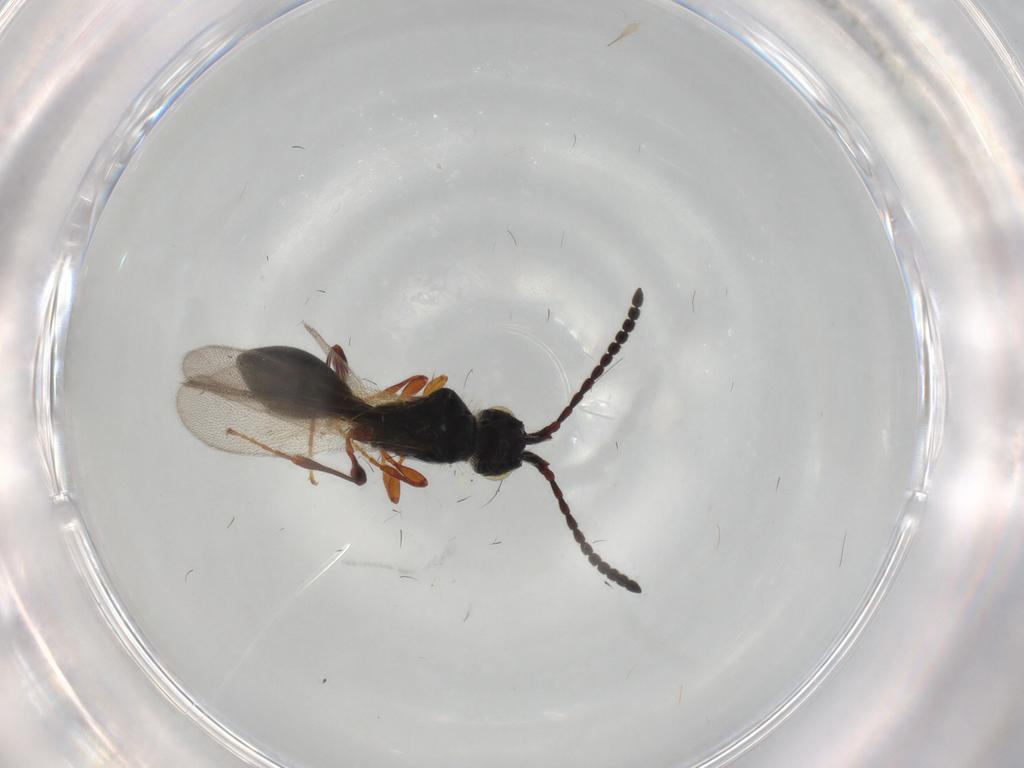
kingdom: Animalia
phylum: Arthropoda
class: Insecta
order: Hymenoptera
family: Diapriidae
